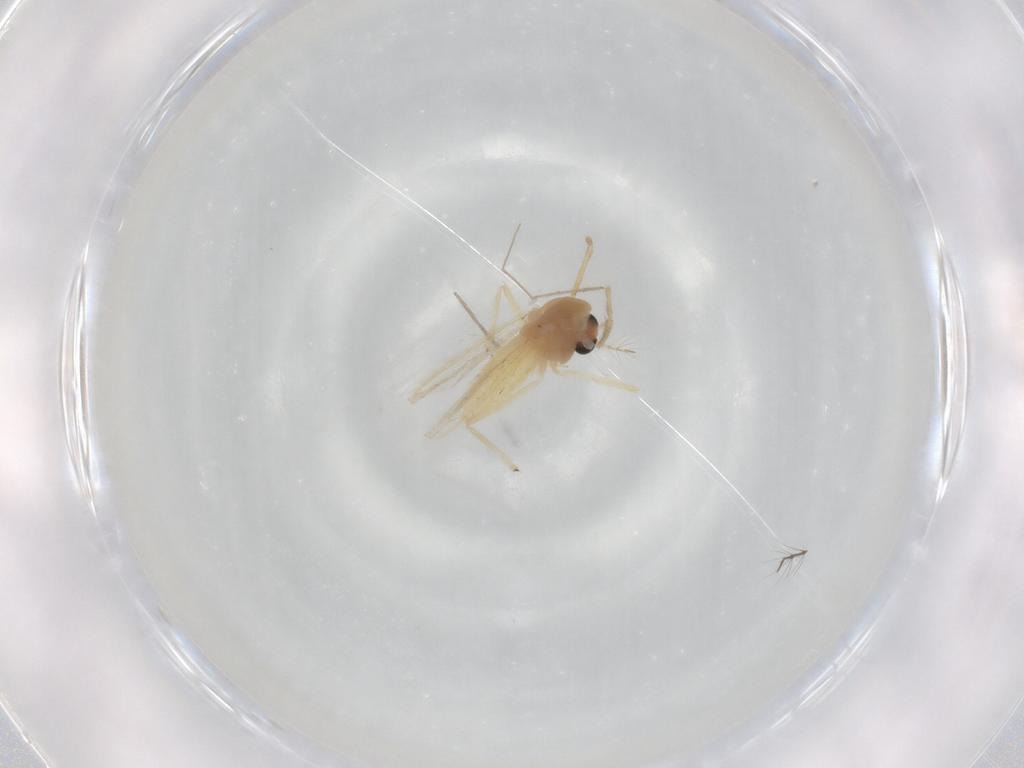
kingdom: Animalia
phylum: Arthropoda
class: Insecta
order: Diptera
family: Chironomidae
